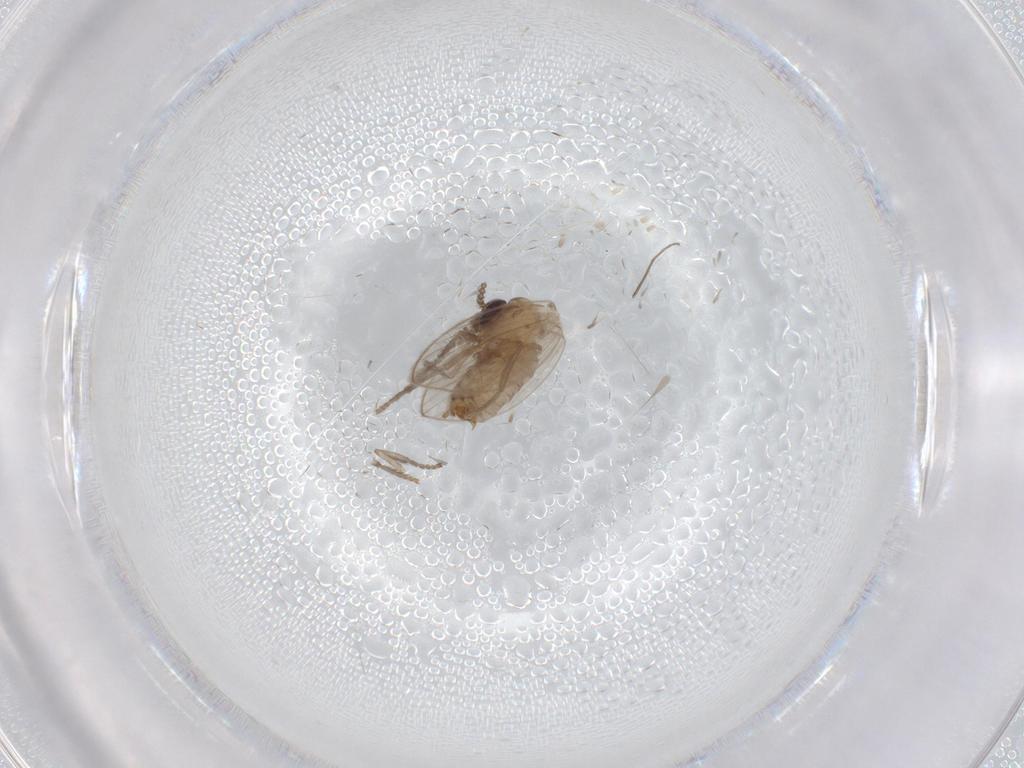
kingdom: Animalia
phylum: Arthropoda
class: Insecta
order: Diptera
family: Psychodidae
